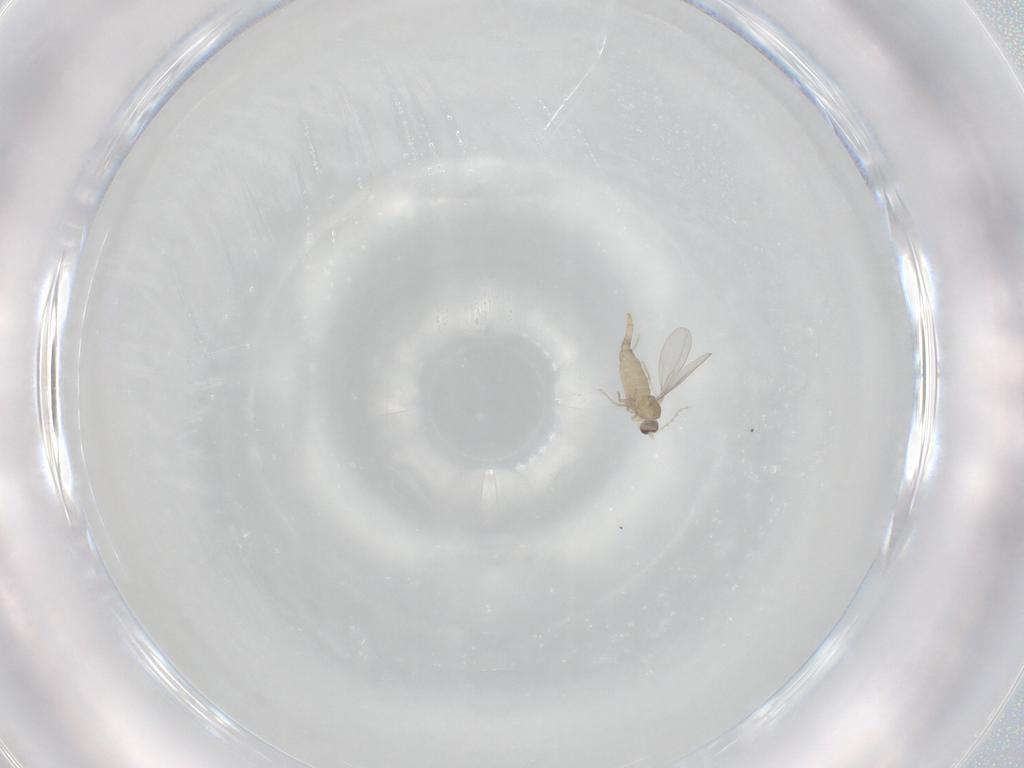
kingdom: Animalia
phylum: Arthropoda
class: Insecta
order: Diptera
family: Cecidomyiidae
